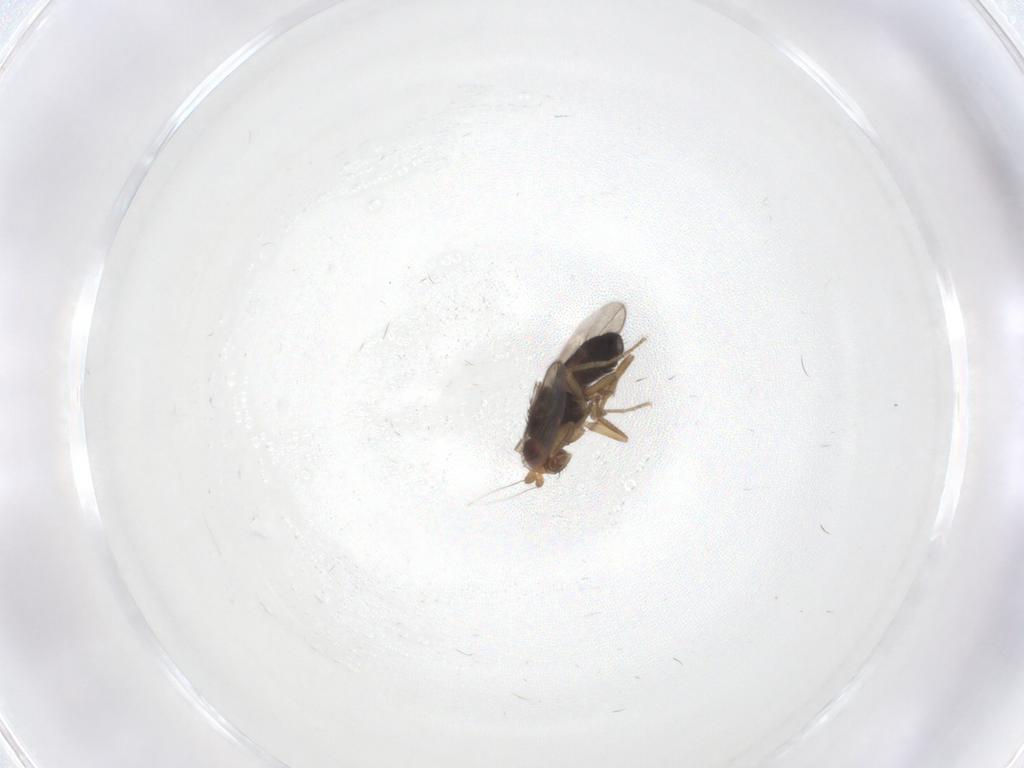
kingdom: Animalia
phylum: Arthropoda
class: Insecta
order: Diptera
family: Sphaeroceridae
